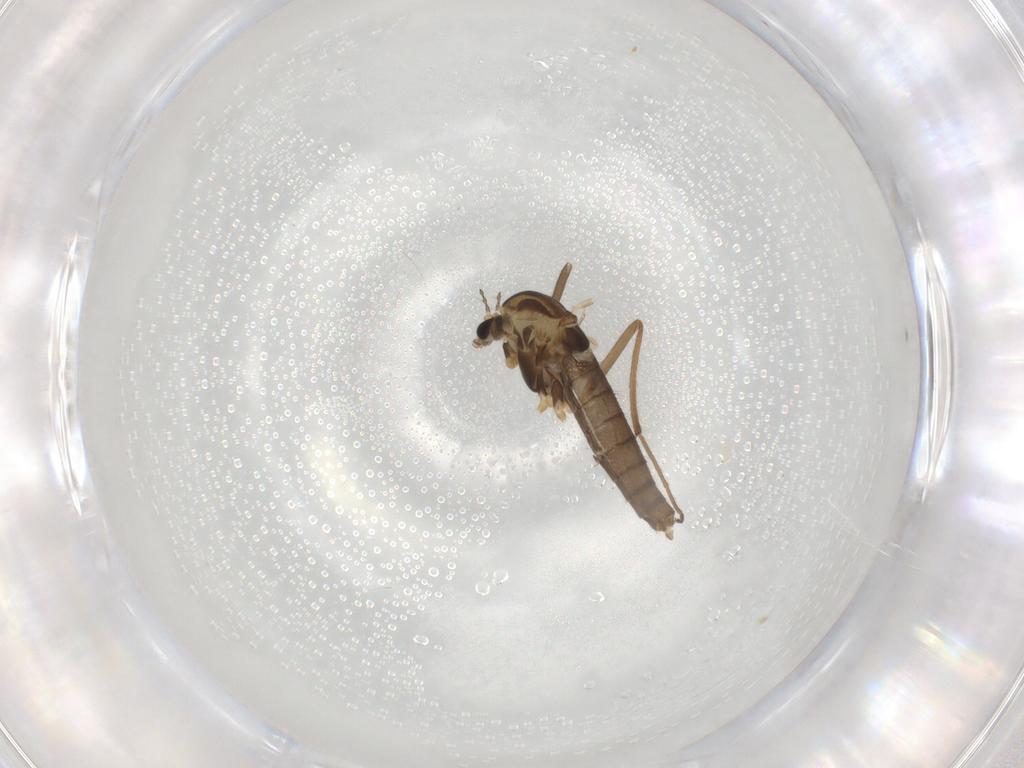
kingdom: Animalia
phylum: Arthropoda
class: Insecta
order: Diptera
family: Chironomidae
